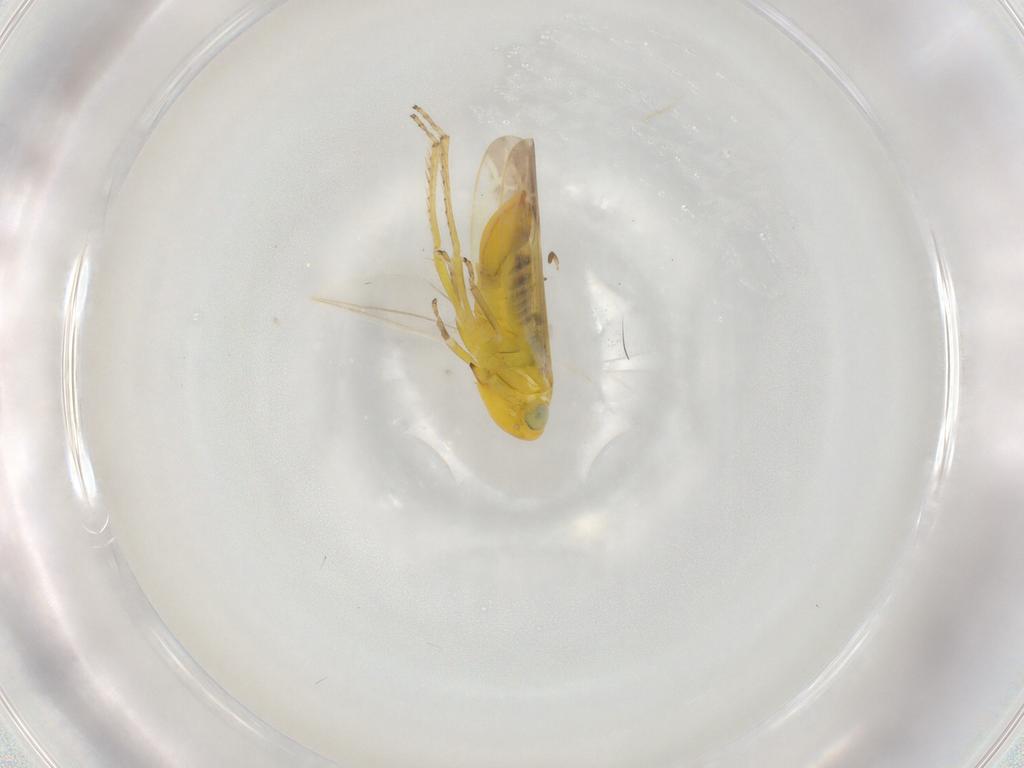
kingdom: Animalia
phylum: Arthropoda
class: Insecta
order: Hemiptera
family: Cicadellidae
